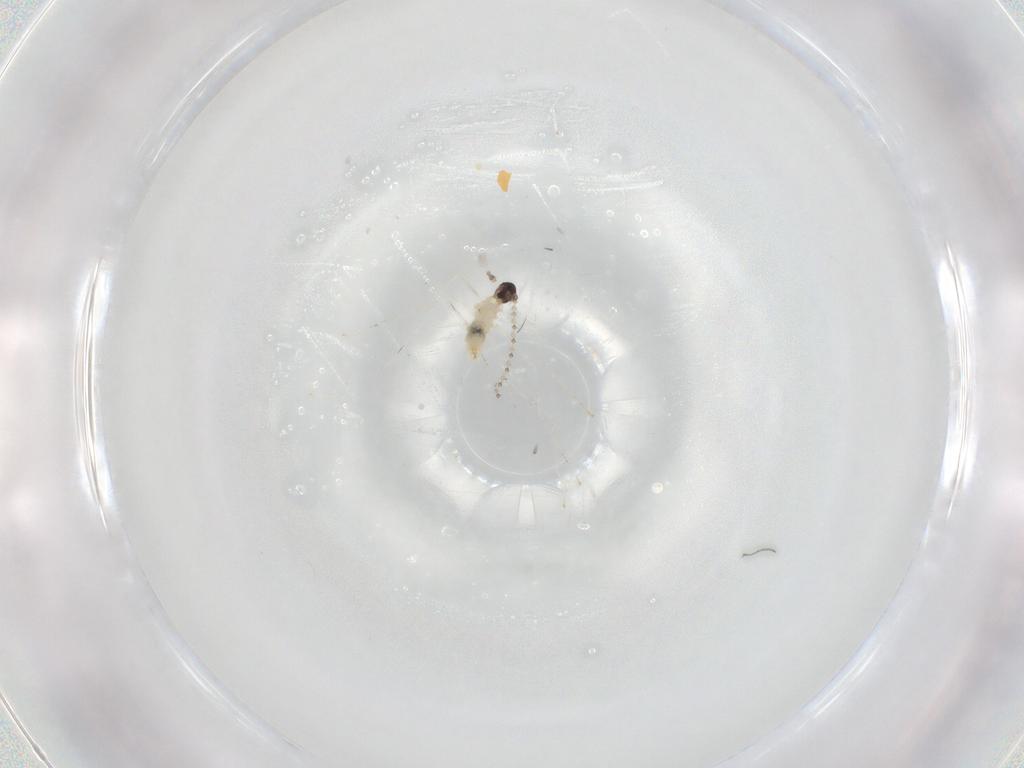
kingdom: Animalia
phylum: Arthropoda
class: Insecta
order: Diptera
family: Cecidomyiidae
